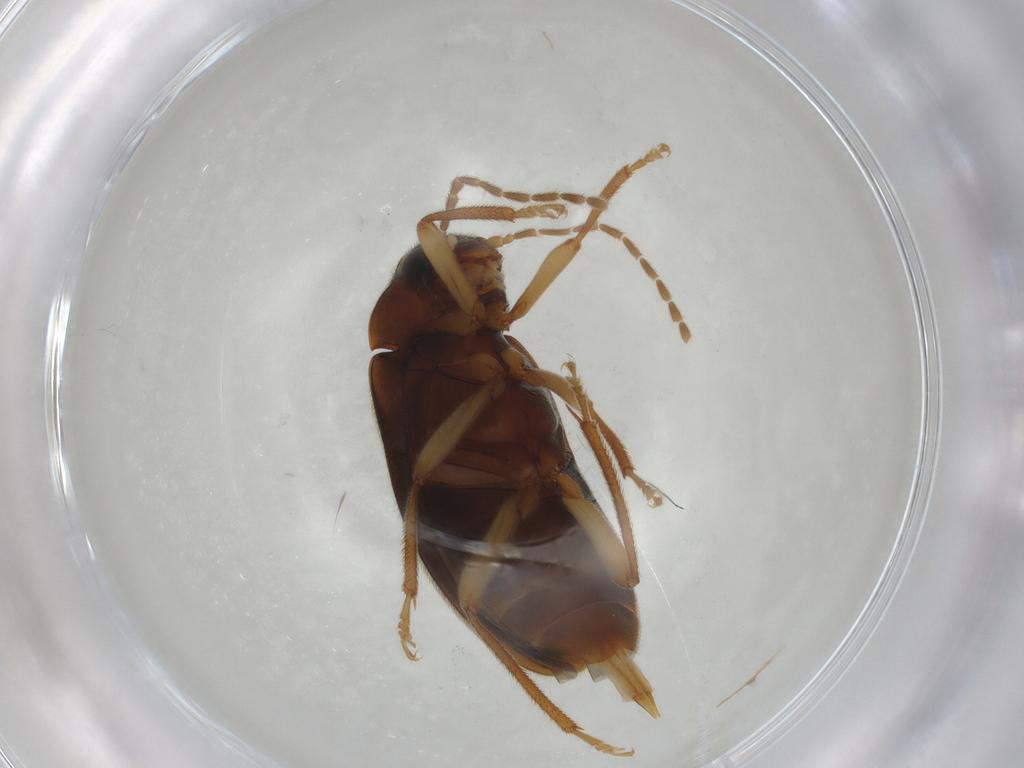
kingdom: Animalia
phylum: Arthropoda
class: Insecta
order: Coleoptera
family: Ptilodactylidae
